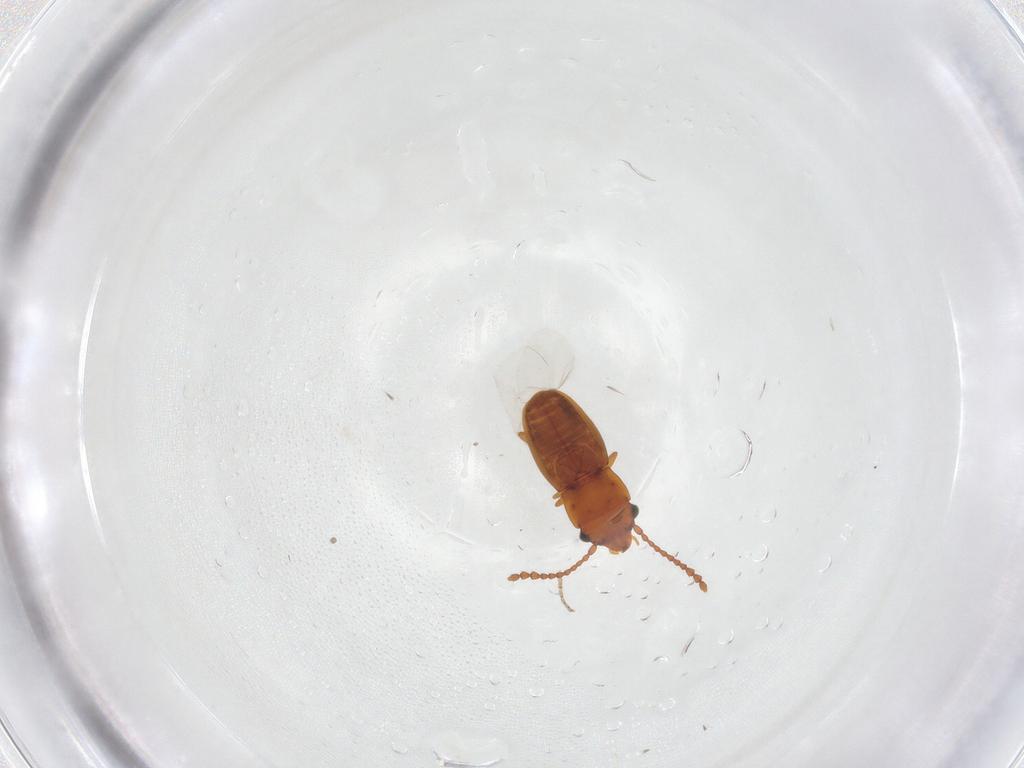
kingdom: Animalia
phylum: Arthropoda
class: Insecta
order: Coleoptera
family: Laemophloeidae
